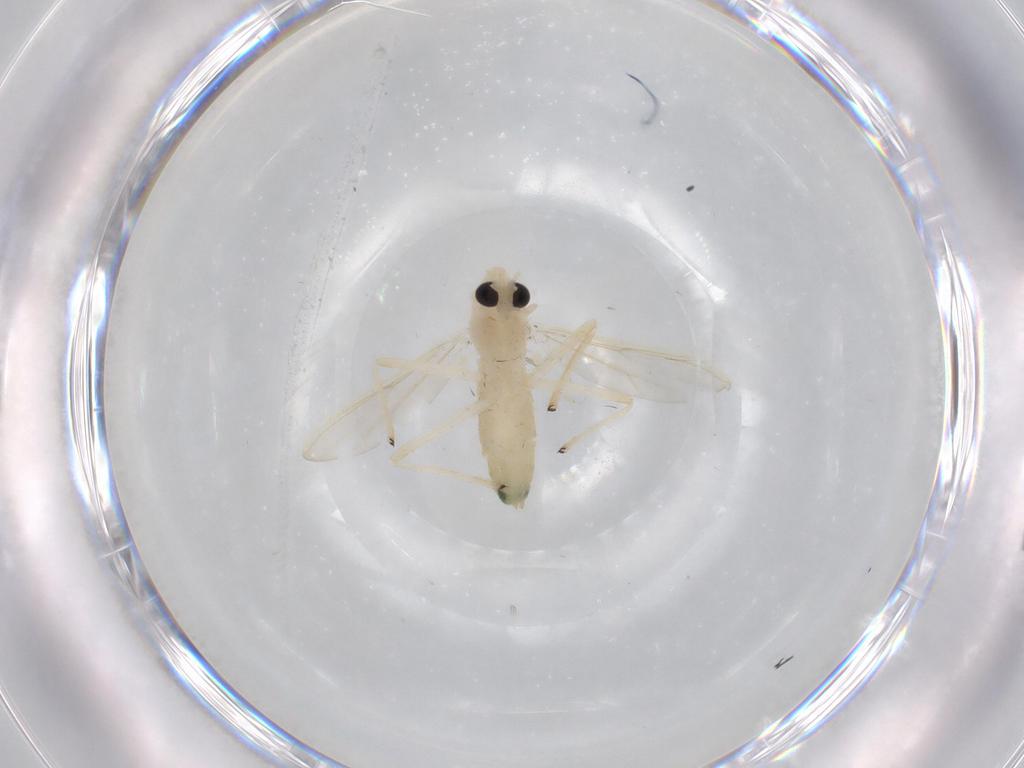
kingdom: Animalia
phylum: Arthropoda
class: Insecta
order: Diptera
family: Chironomidae
